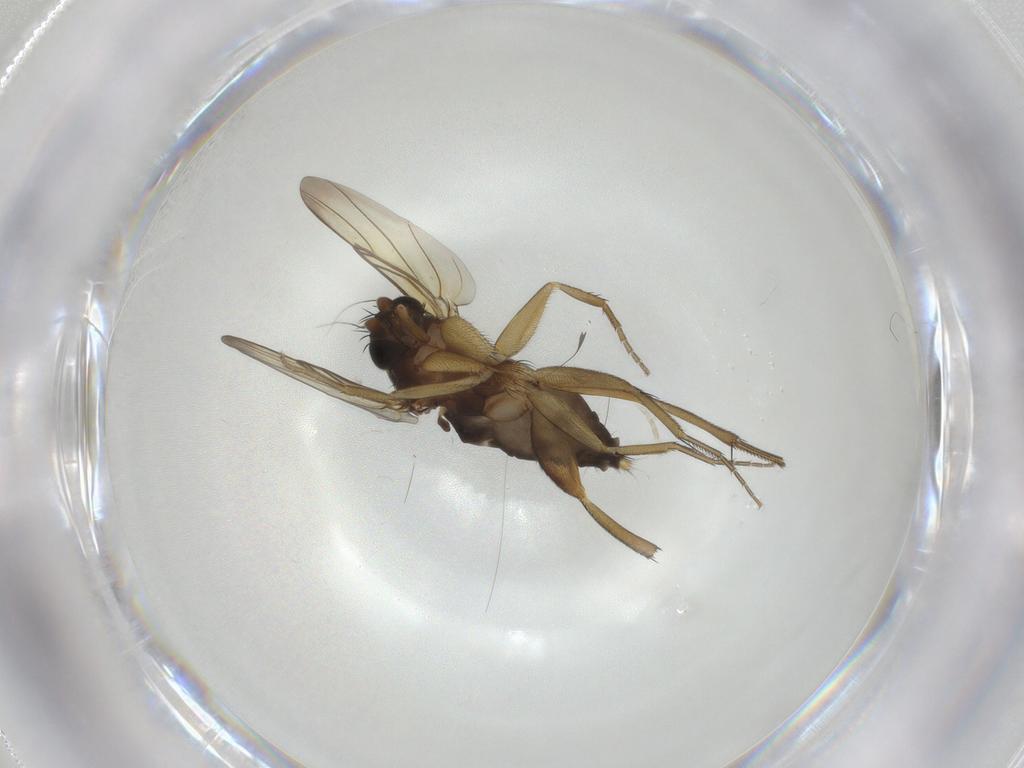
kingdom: Animalia
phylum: Arthropoda
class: Insecta
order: Diptera
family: Phoridae
